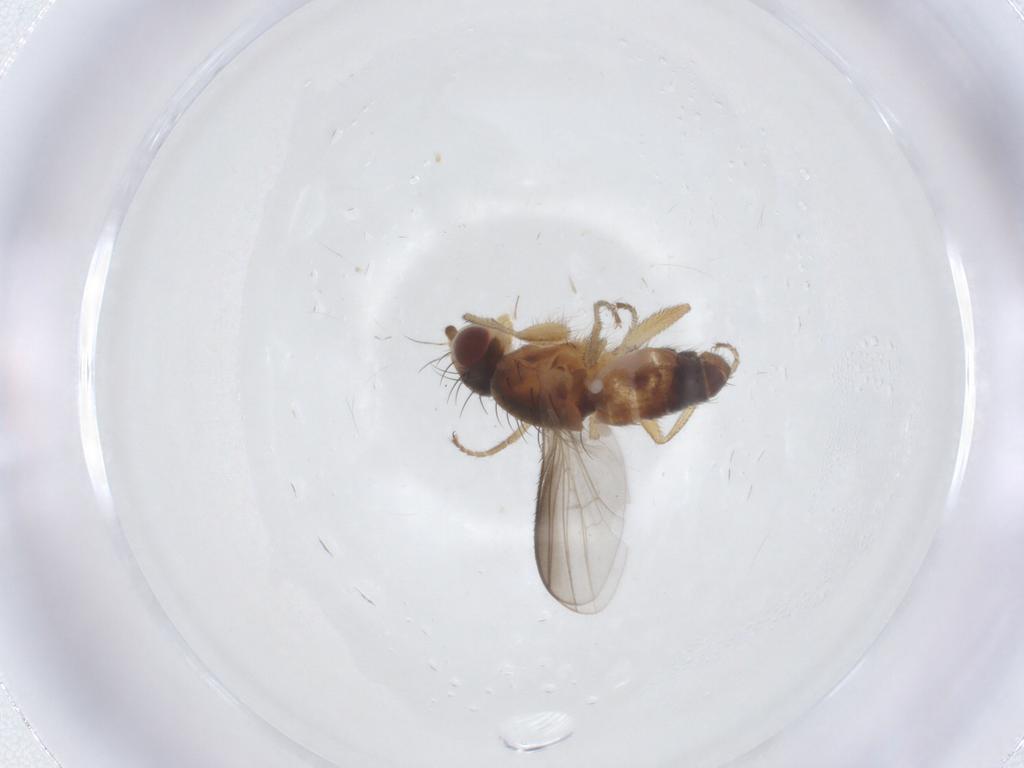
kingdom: Animalia
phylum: Arthropoda
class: Insecta
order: Diptera
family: Heleomyzidae
